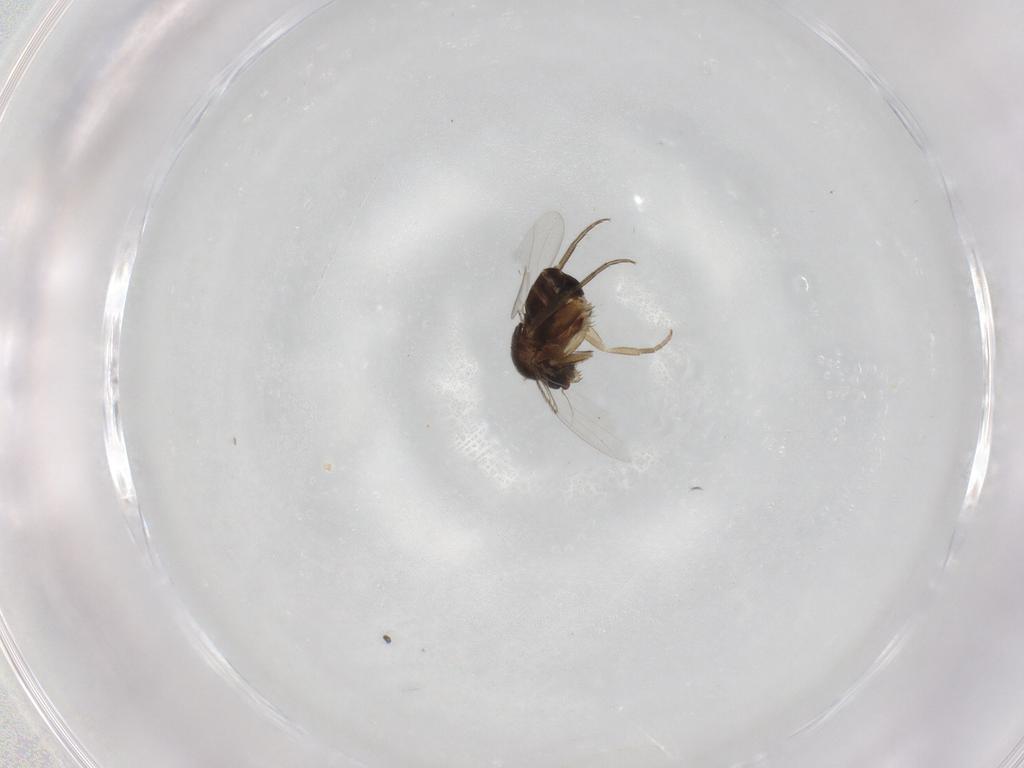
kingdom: Animalia
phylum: Arthropoda
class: Insecta
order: Diptera
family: Phoridae
